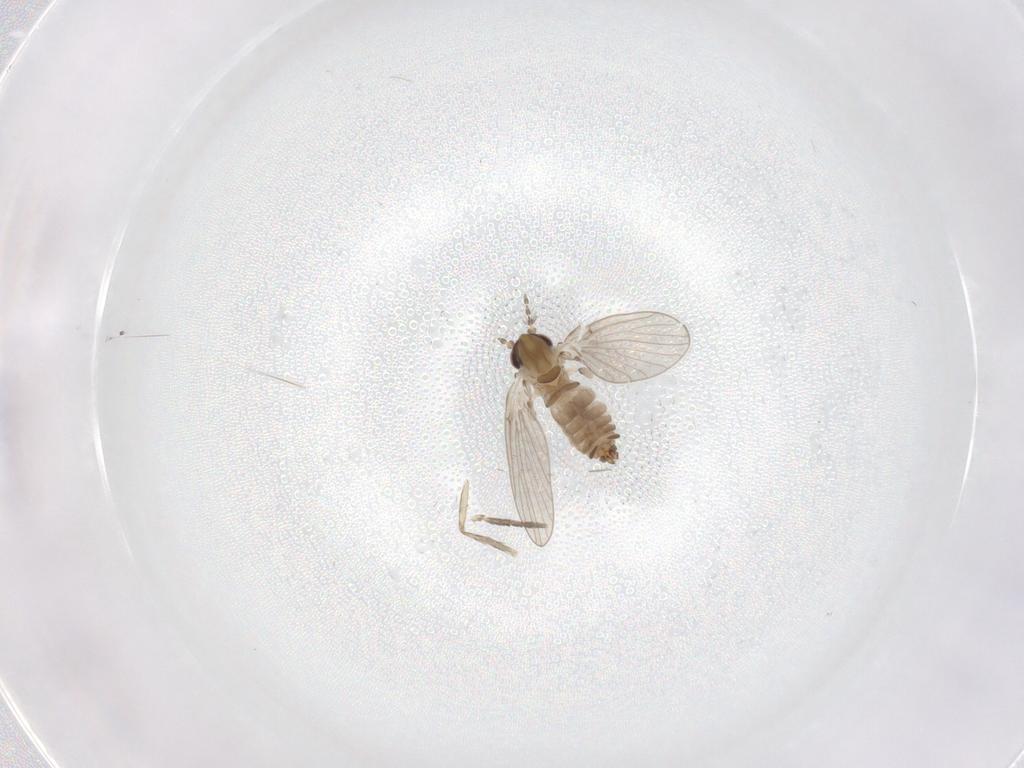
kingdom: Animalia
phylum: Arthropoda
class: Insecta
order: Diptera
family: Psychodidae
